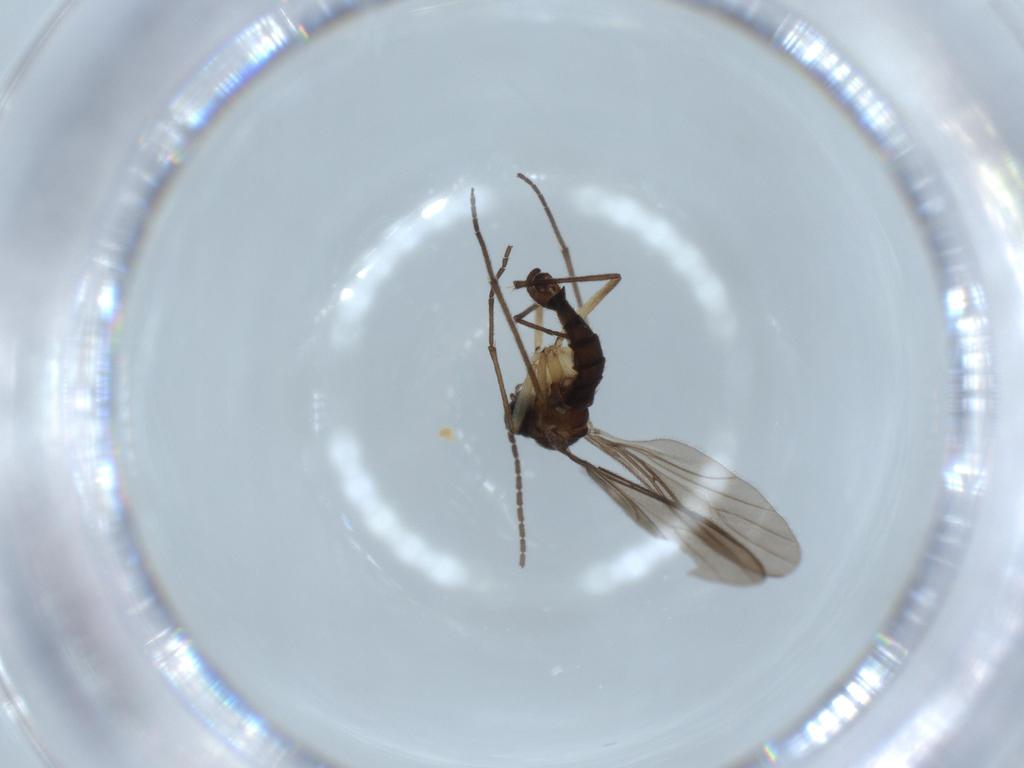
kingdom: Animalia
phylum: Arthropoda
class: Insecta
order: Diptera
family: Sciaridae
